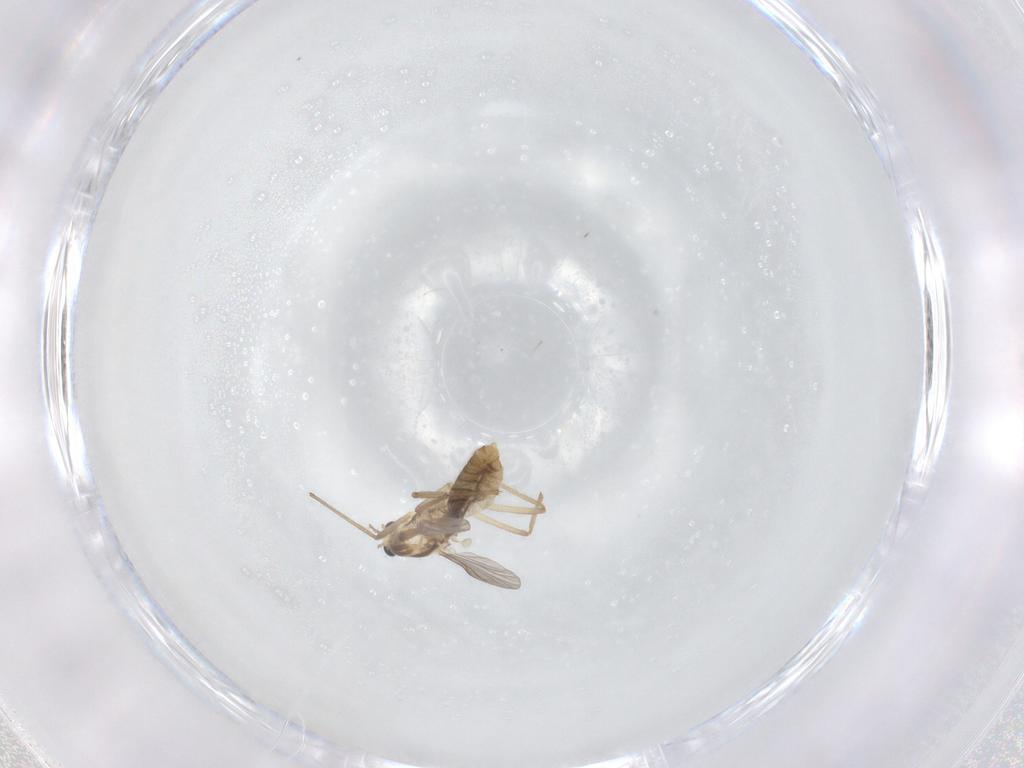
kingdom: Animalia
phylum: Arthropoda
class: Insecta
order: Diptera
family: Chironomidae
